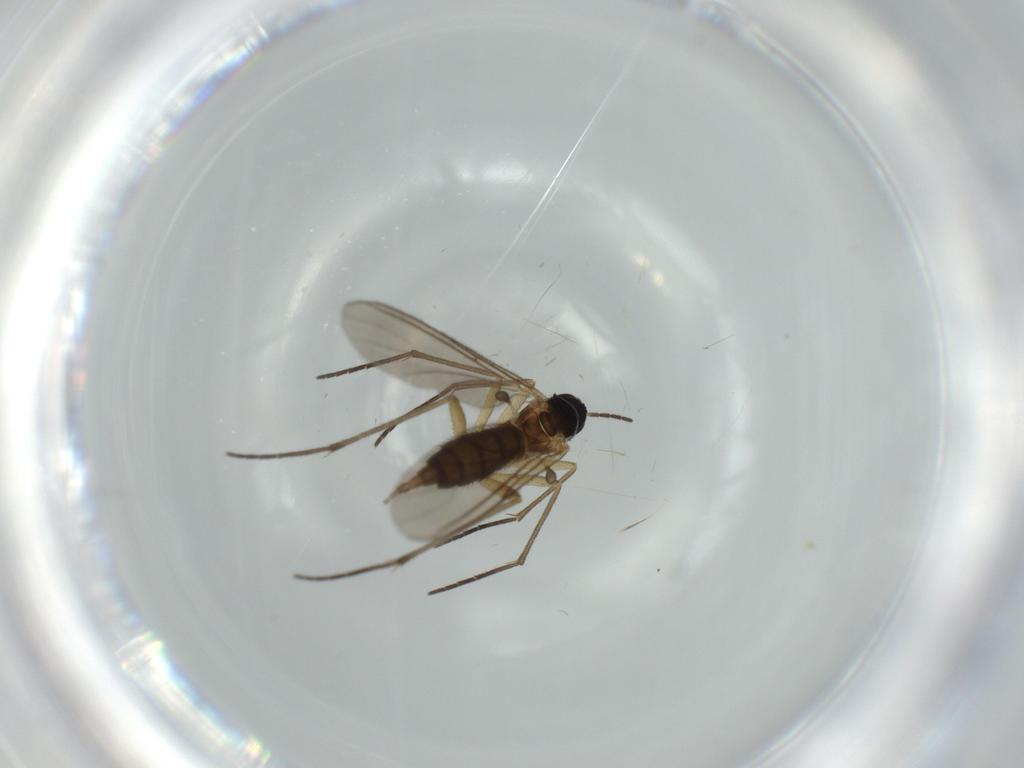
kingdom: Animalia
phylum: Arthropoda
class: Insecta
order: Diptera
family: Sciaridae
